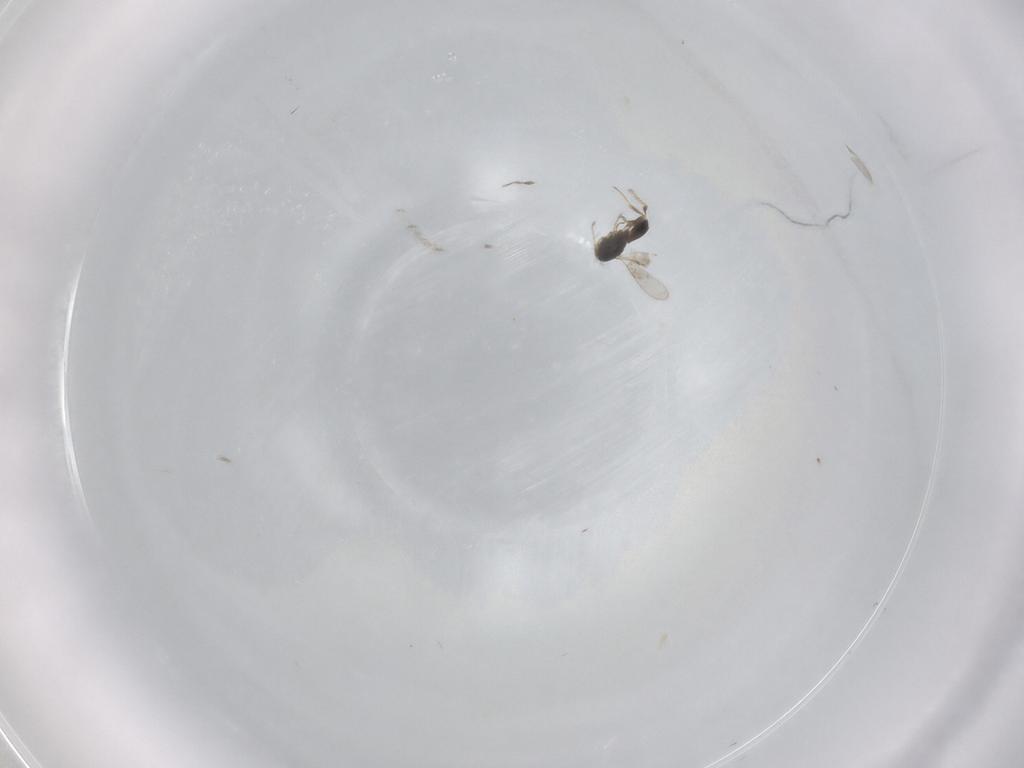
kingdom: Animalia
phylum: Arthropoda
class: Insecta
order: Hymenoptera
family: Scelionidae
